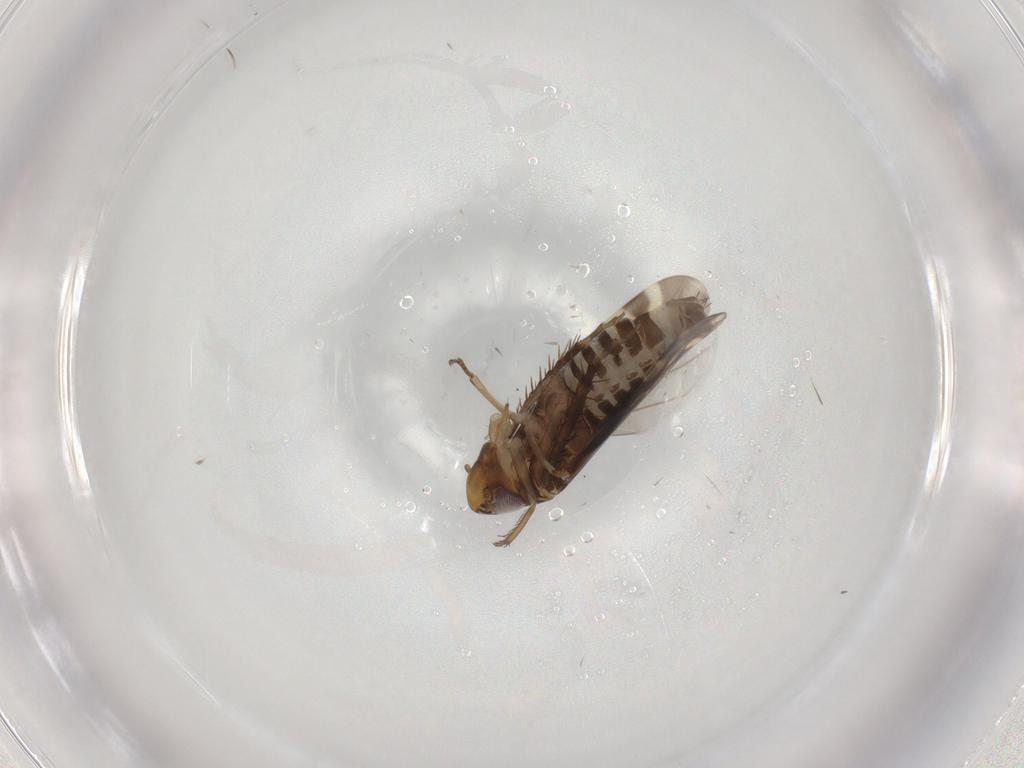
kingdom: Animalia
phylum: Arthropoda
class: Insecta
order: Hemiptera
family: Cicadellidae
